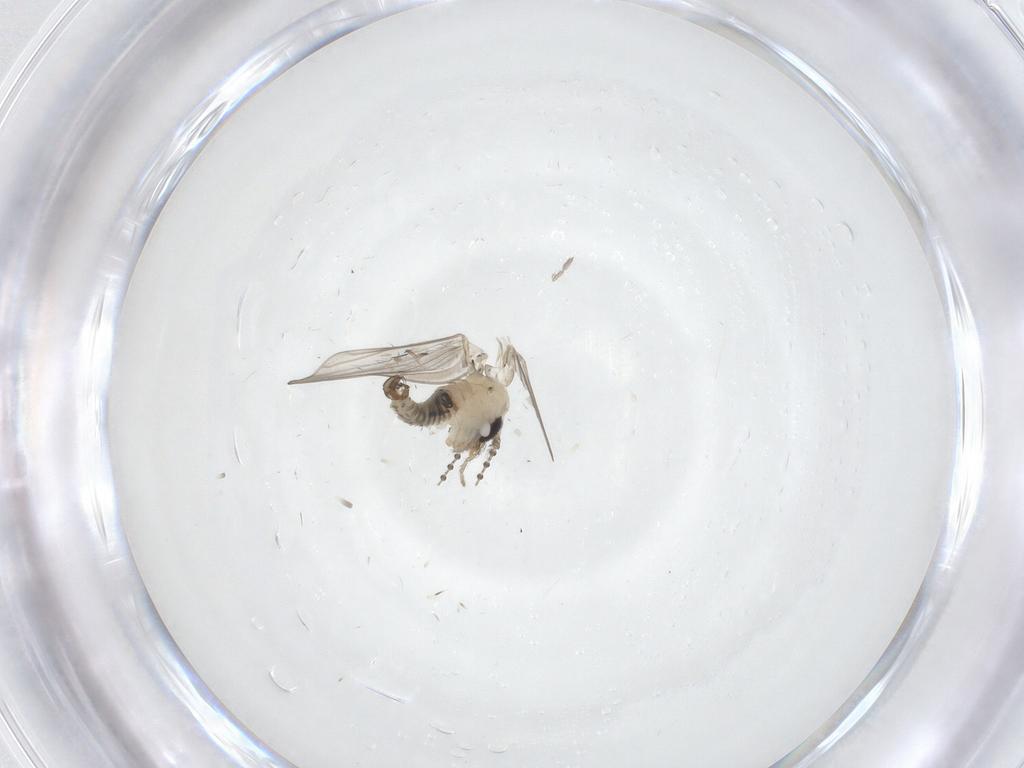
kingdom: Animalia
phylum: Arthropoda
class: Insecta
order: Diptera
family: Psychodidae
